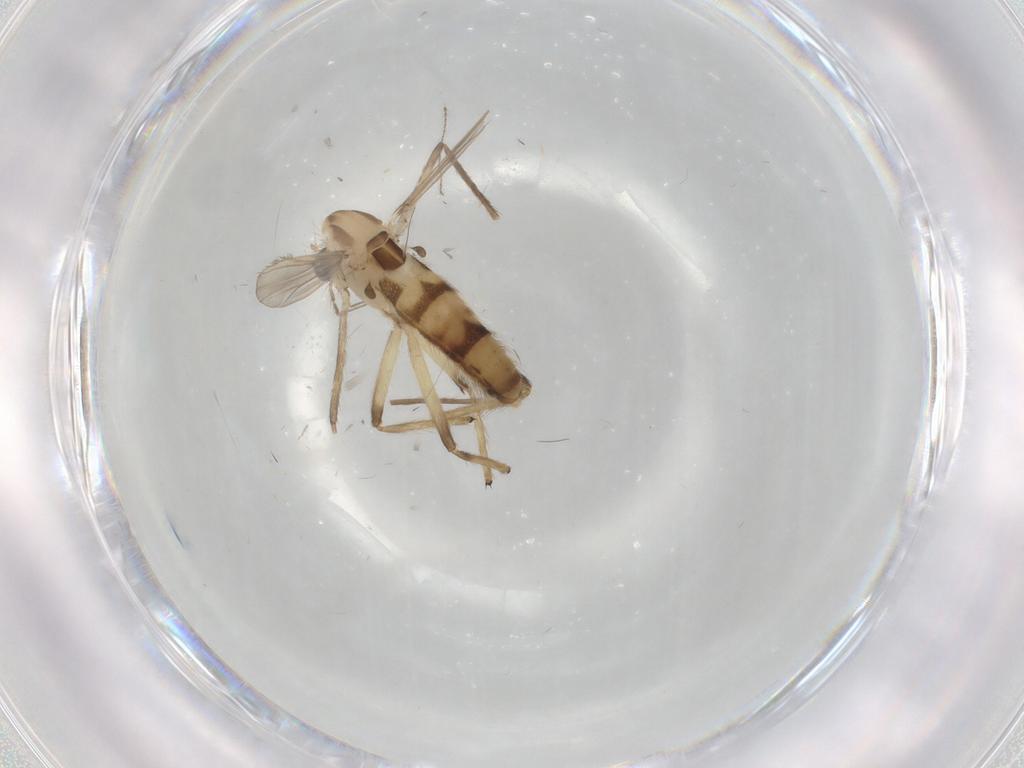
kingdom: Animalia
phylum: Arthropoda
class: Insecta
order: Diptera
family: Chironomidae
